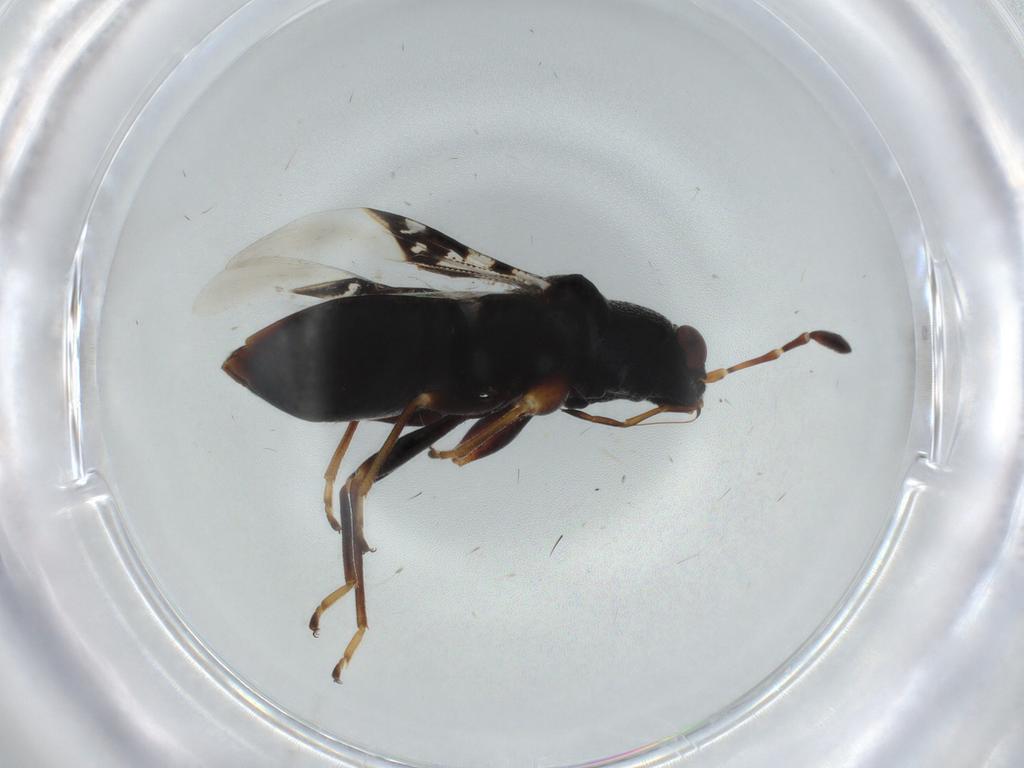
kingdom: Animalia
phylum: Arthropoda
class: Insecta
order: Hemiptera
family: Rhyparochromidae
